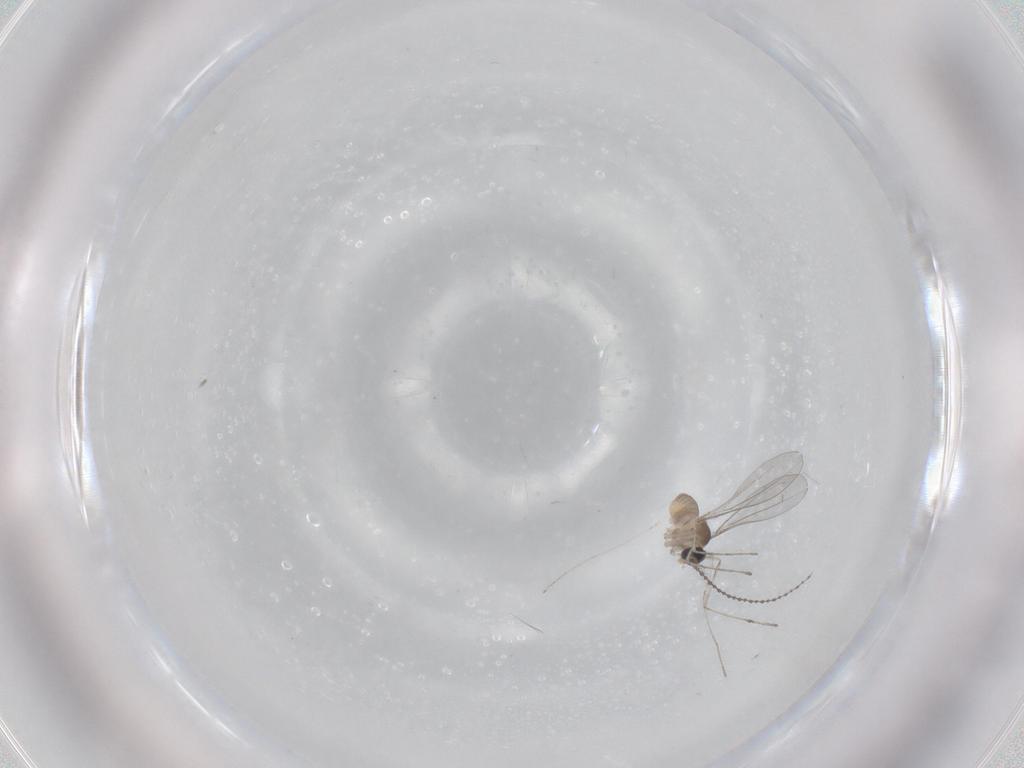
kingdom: Animalia
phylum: Arthropoda
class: Insecta
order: Diptera
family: Cecidomyiidae
